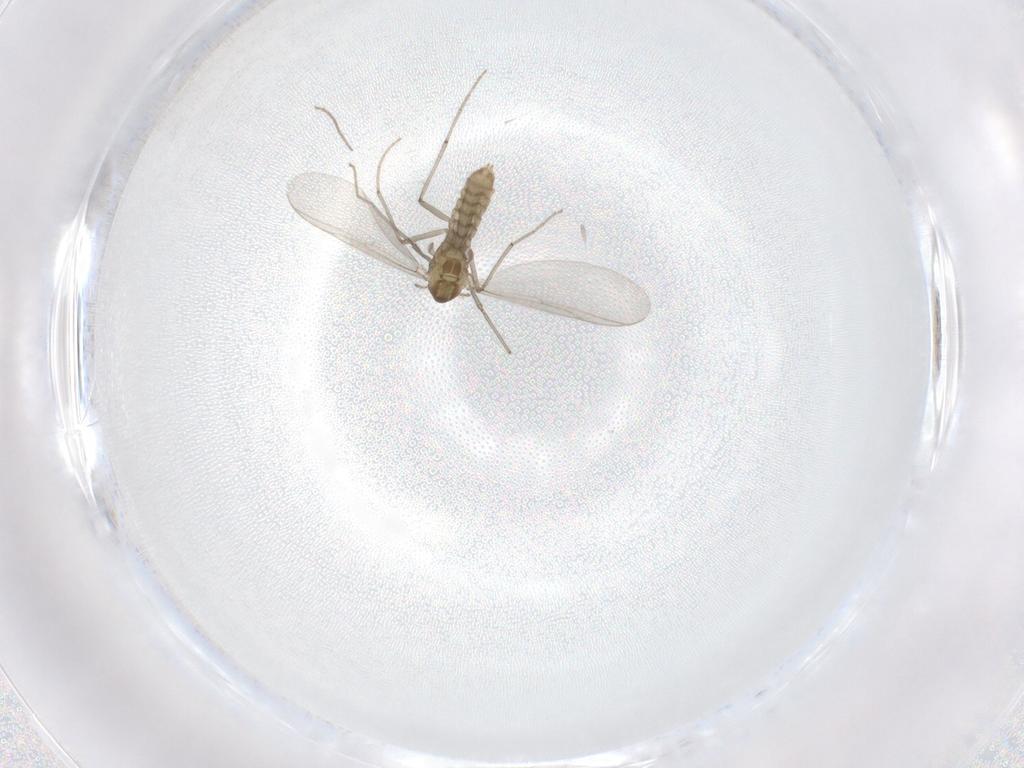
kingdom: Animalia
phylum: Arthropoda
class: Insecta
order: Diptera
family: Chironomidae
